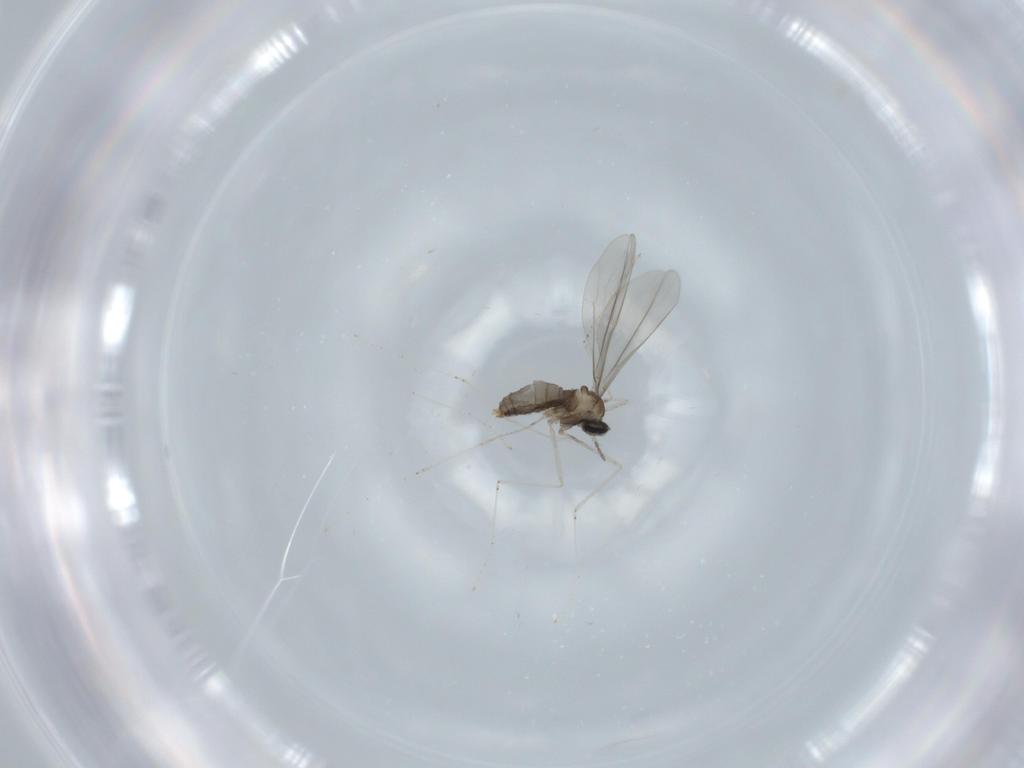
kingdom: Animalia
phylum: Arthropoda
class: Insecta
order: Diptera
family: Cecidomyiidae
